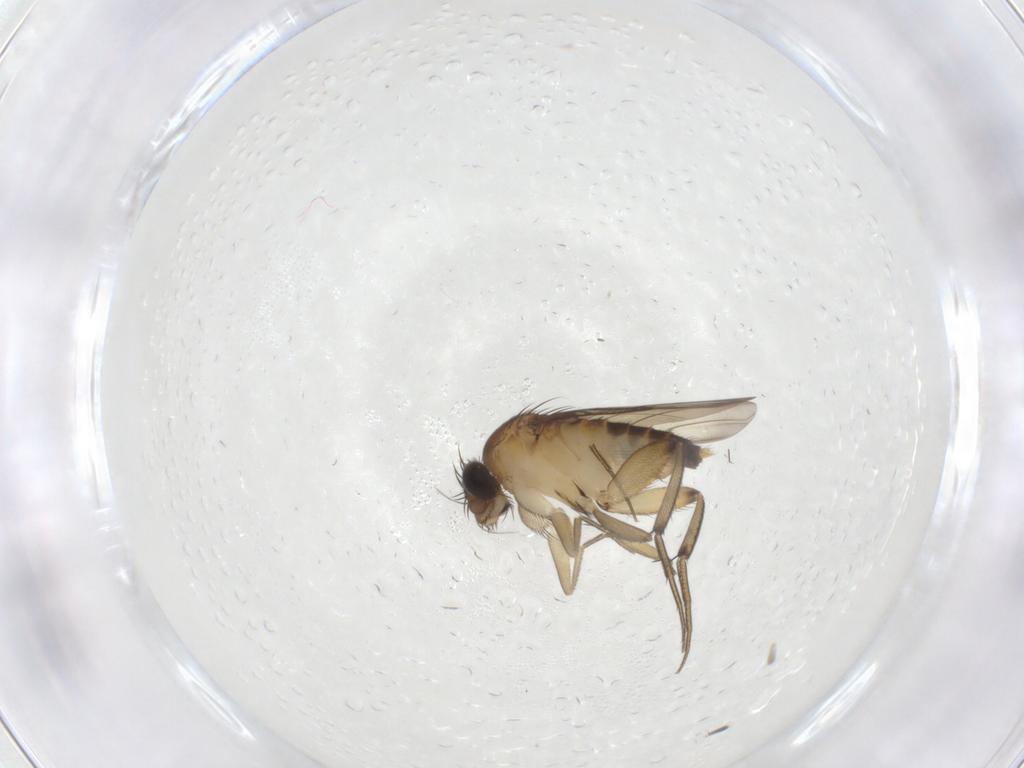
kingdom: Animalia
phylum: Arthropoda
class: Insecta
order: Diptera
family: Phoridae
